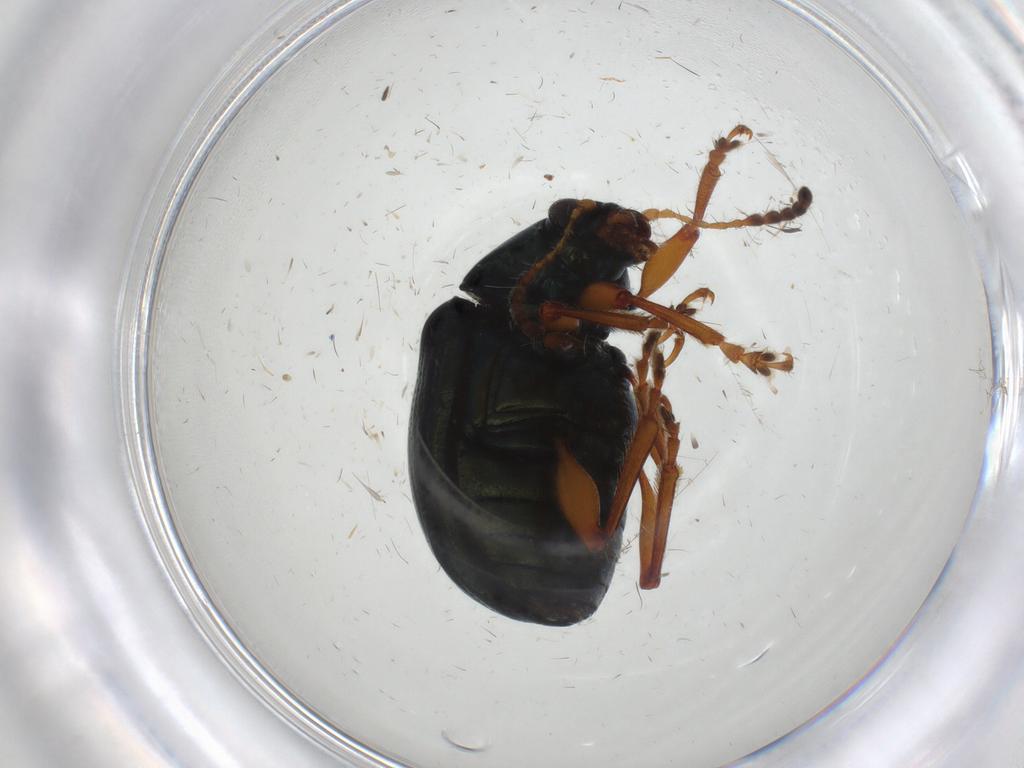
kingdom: Animalia
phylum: Arthropoda
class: Insecta
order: Coleoptera
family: Chrysomelidae
